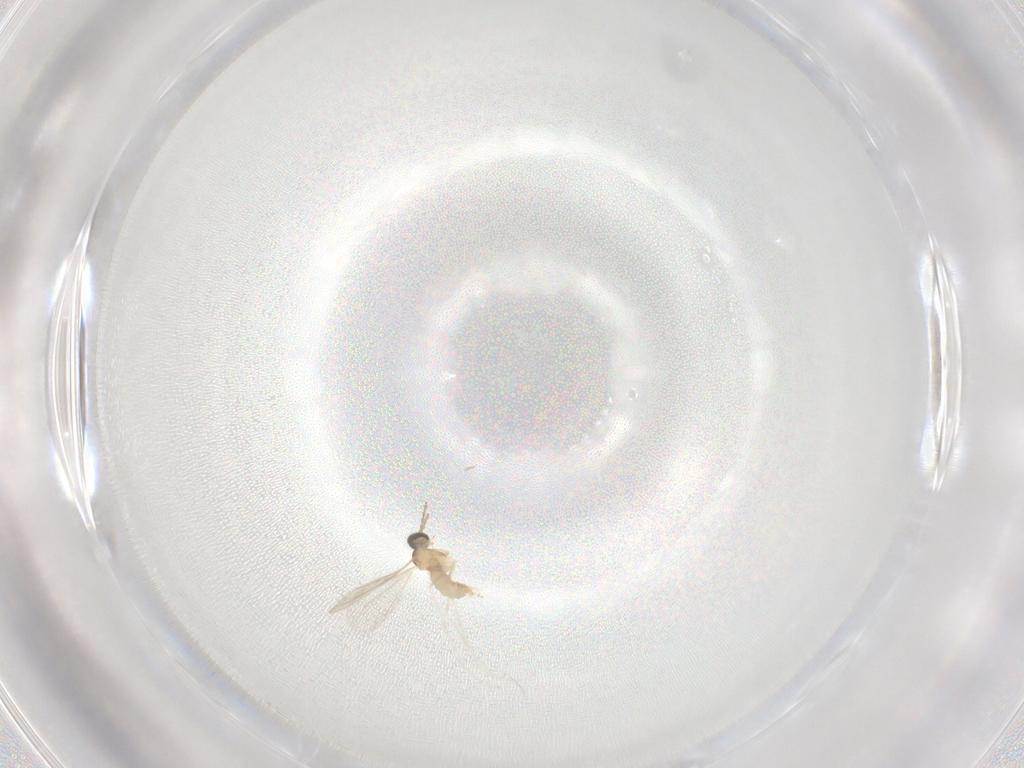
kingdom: Animalia
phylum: Arthropoda
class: Insecta
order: Diptera
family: Cecidomyiidae
